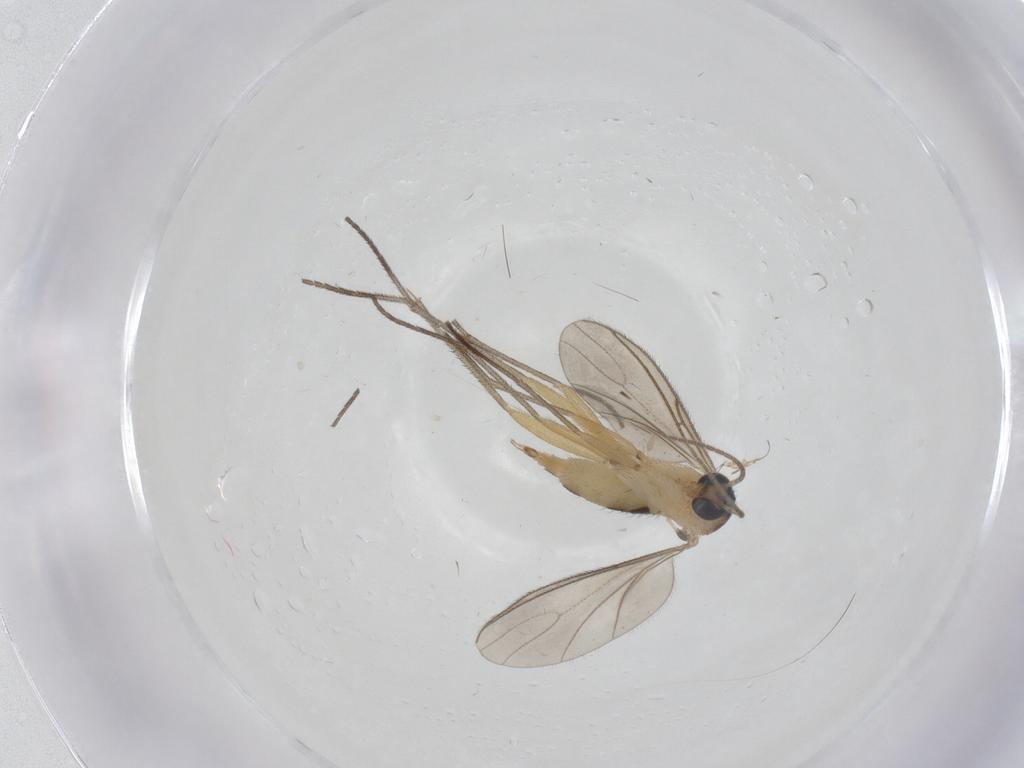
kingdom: Animalia
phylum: Arthropoda
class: Insecta
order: Diptera
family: Sciaridae
